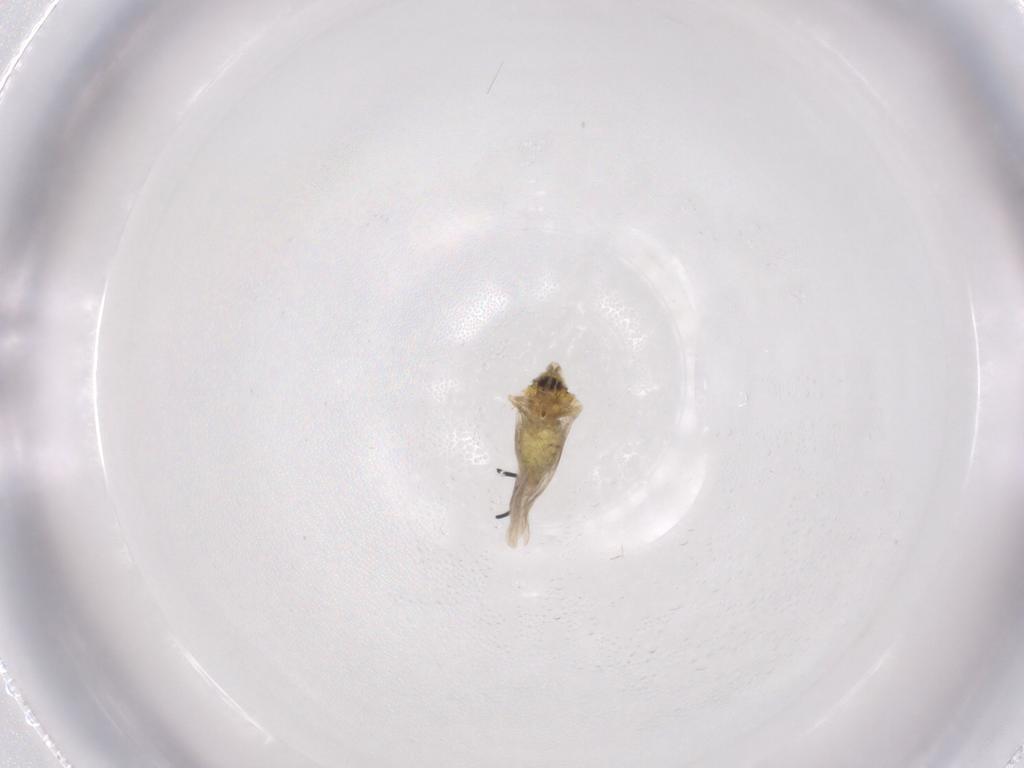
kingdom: Animalia
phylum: Arthropoda
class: Insecta
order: Hemiptera
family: Aleyrodidae
